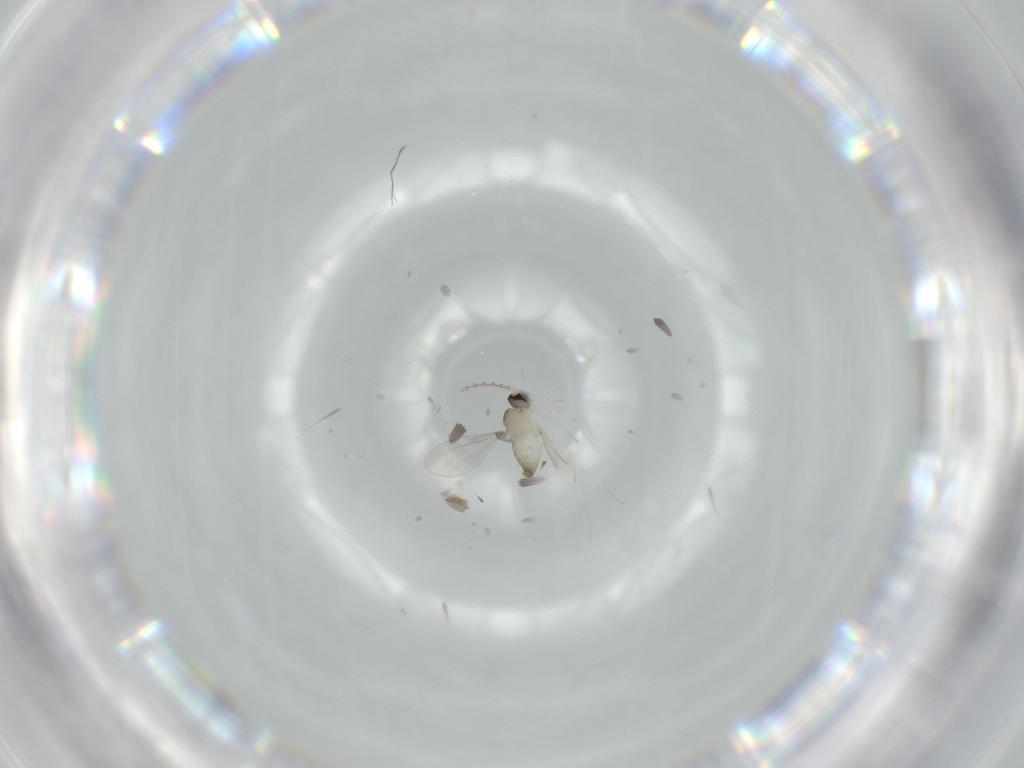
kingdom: Animalia
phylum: Arthropoda
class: Insecta
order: Diptera
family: Cecidomyiidae
